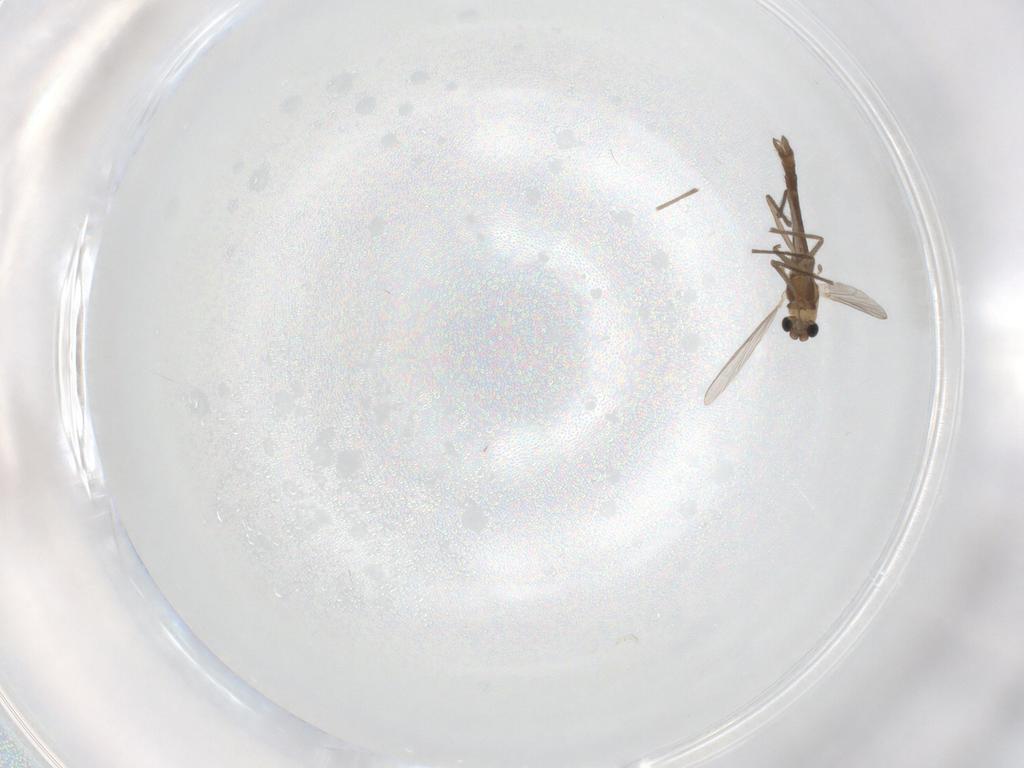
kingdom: Animalia
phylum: Arthropoda
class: Insecta
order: Diptera
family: Chironomidae
